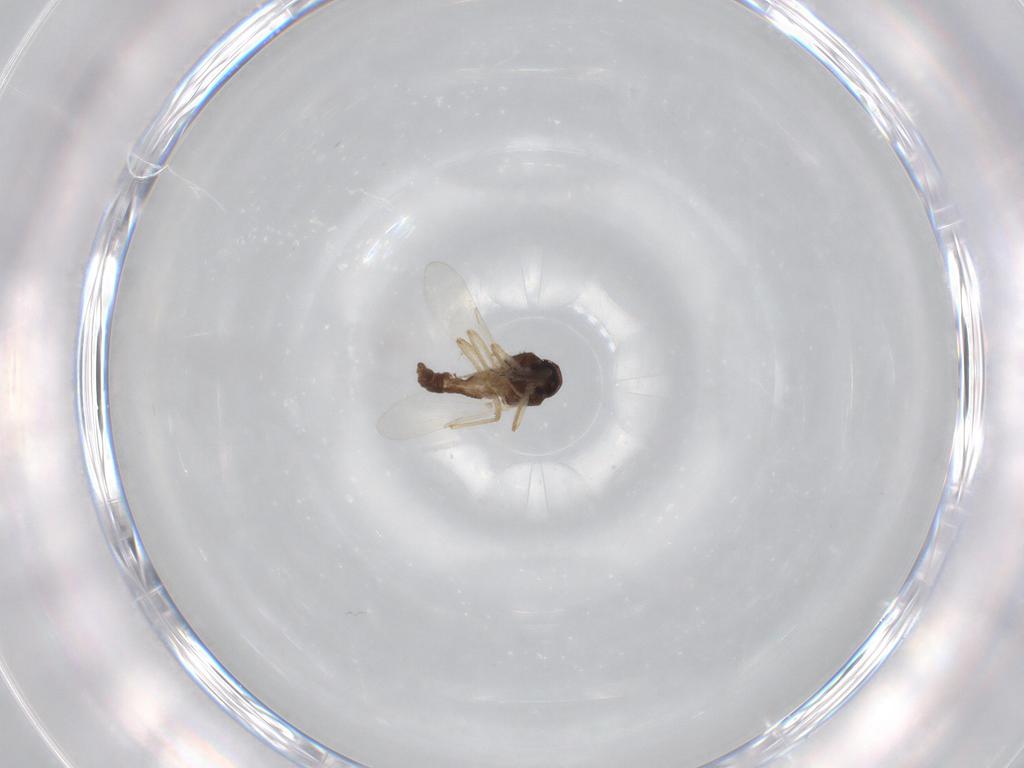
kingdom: Animalia
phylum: Arthropoda
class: Insecta
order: Diptera
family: Ceratopogonidae
